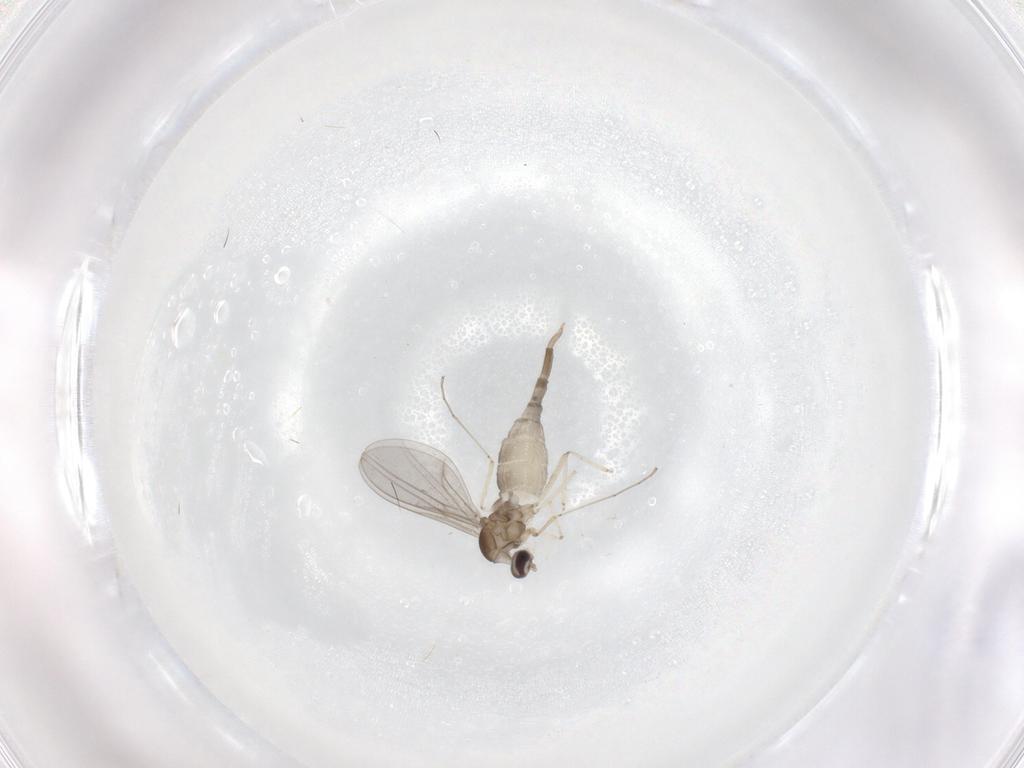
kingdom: Animalia
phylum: Arthropoda
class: Insecta
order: Diptera
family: Cecidomyiidae
